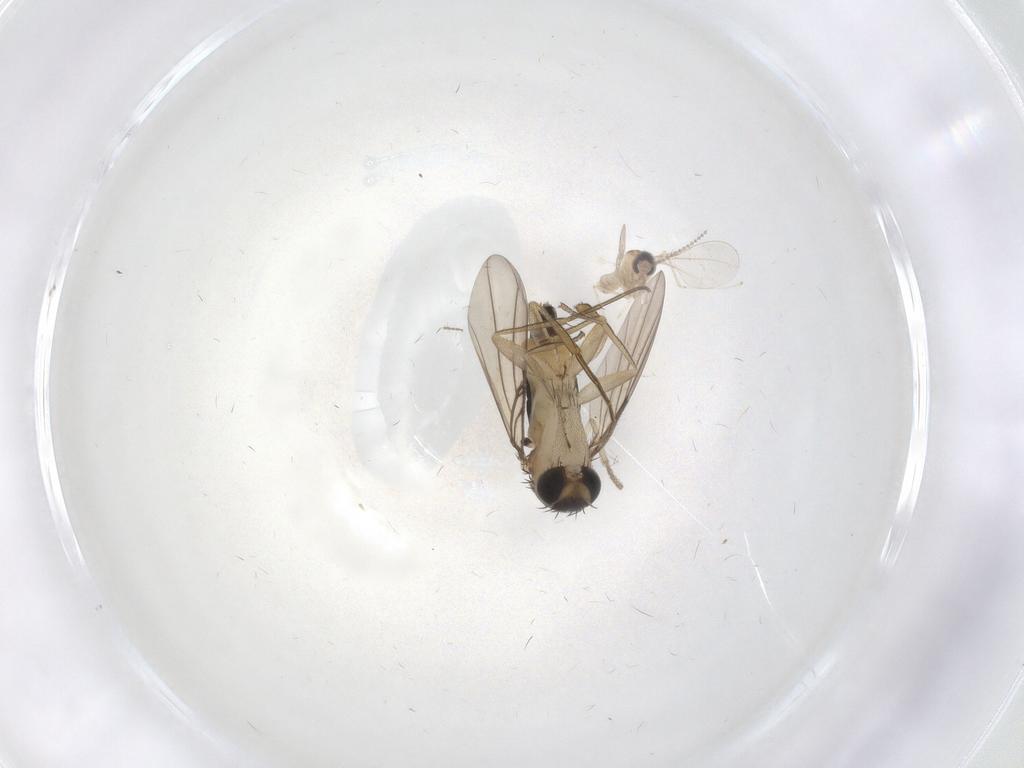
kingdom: Animalia
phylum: Arthropoda
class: Insecta
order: Diptera
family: Phoridae
